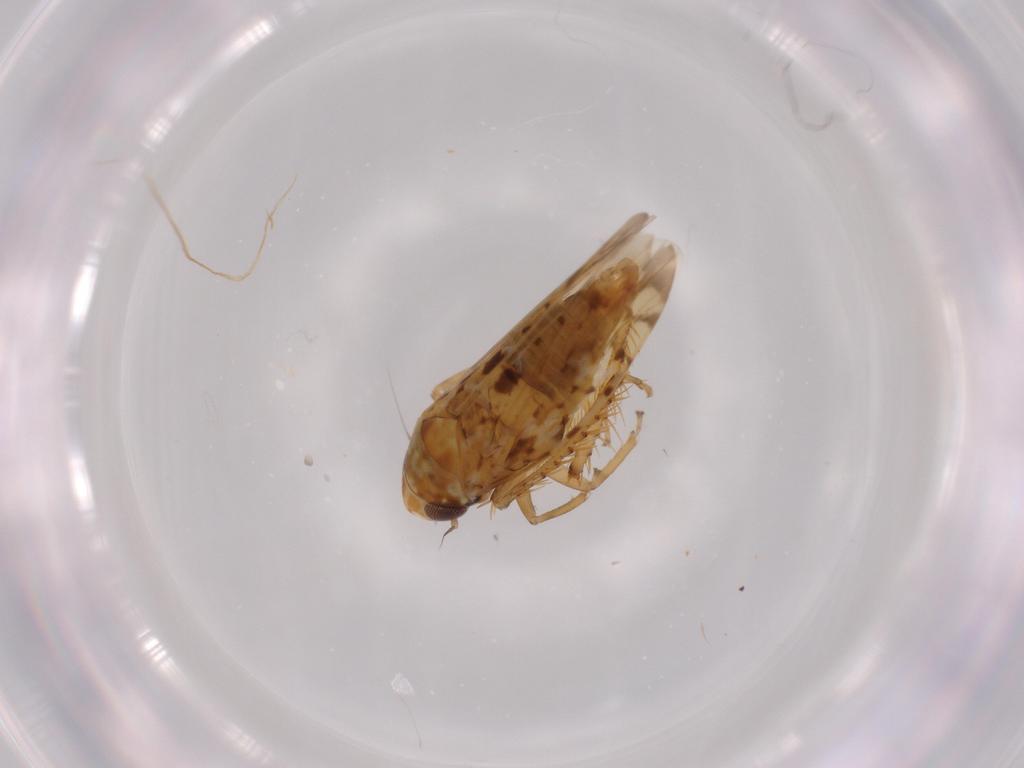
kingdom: Animalia
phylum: Arthropoda
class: Insecta
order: Hemiptera
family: Cicadellidae
